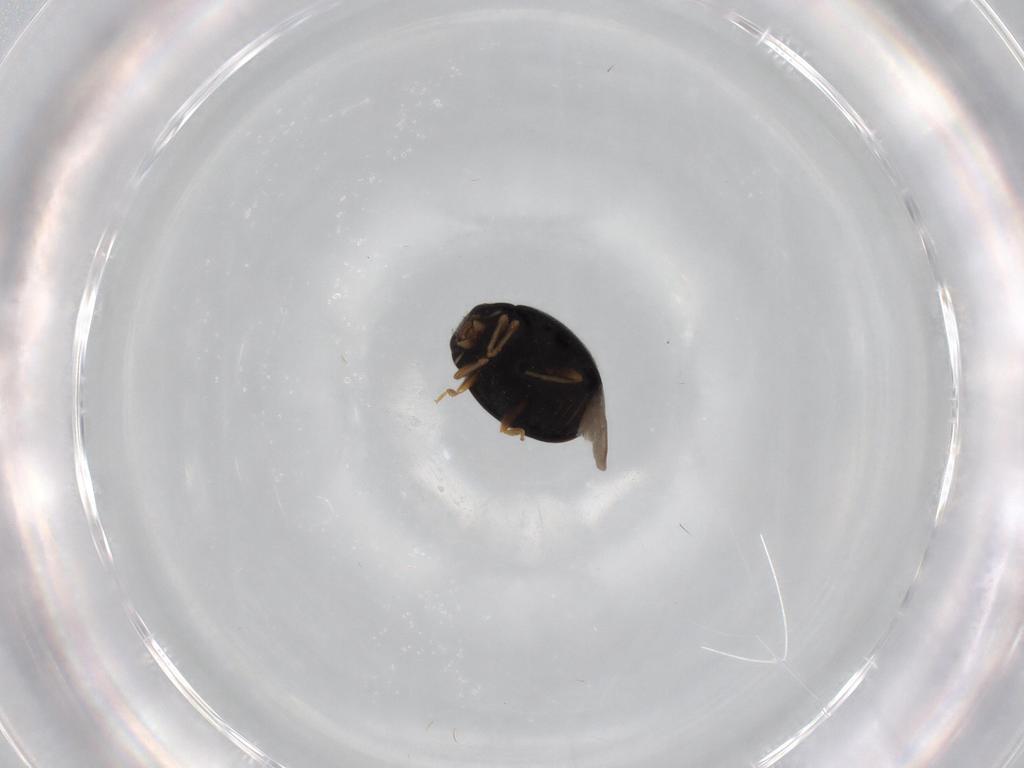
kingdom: Animalia
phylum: Arthropoda
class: Insecta
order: Coleoptera
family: Coccinellidae
